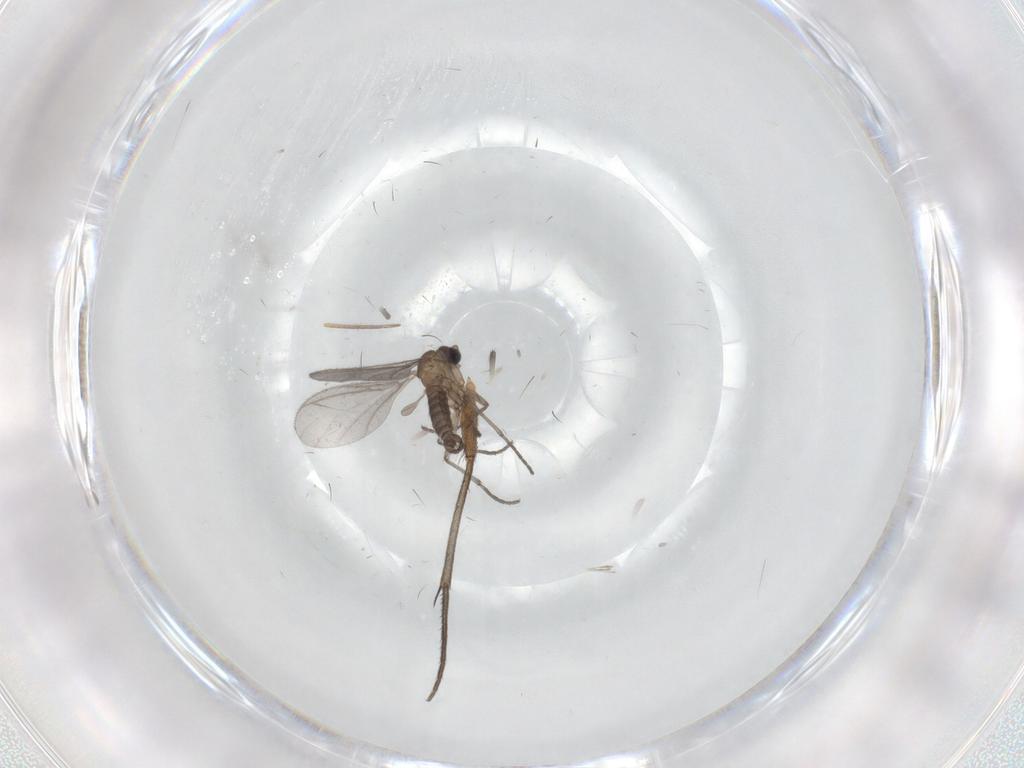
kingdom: Animalia
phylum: Arthropoda
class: Insecta
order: Diptera
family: Sciaridae
